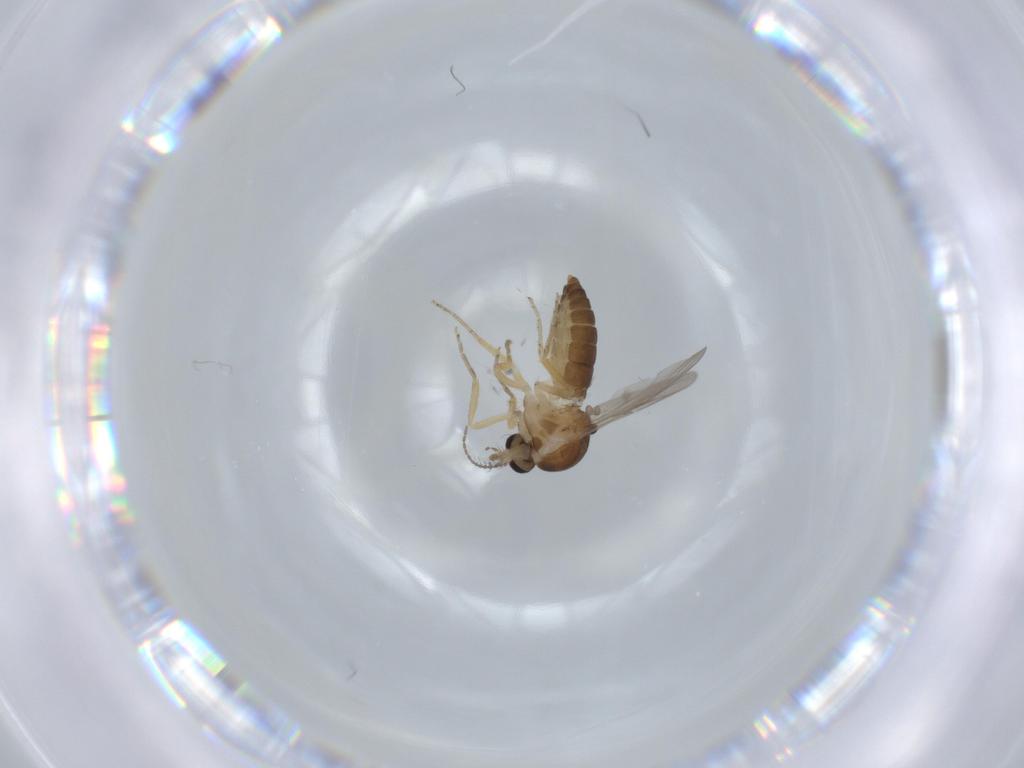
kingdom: Animalia
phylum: Arthropoda
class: Insecta
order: Diptera
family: Ceratopogonidae
